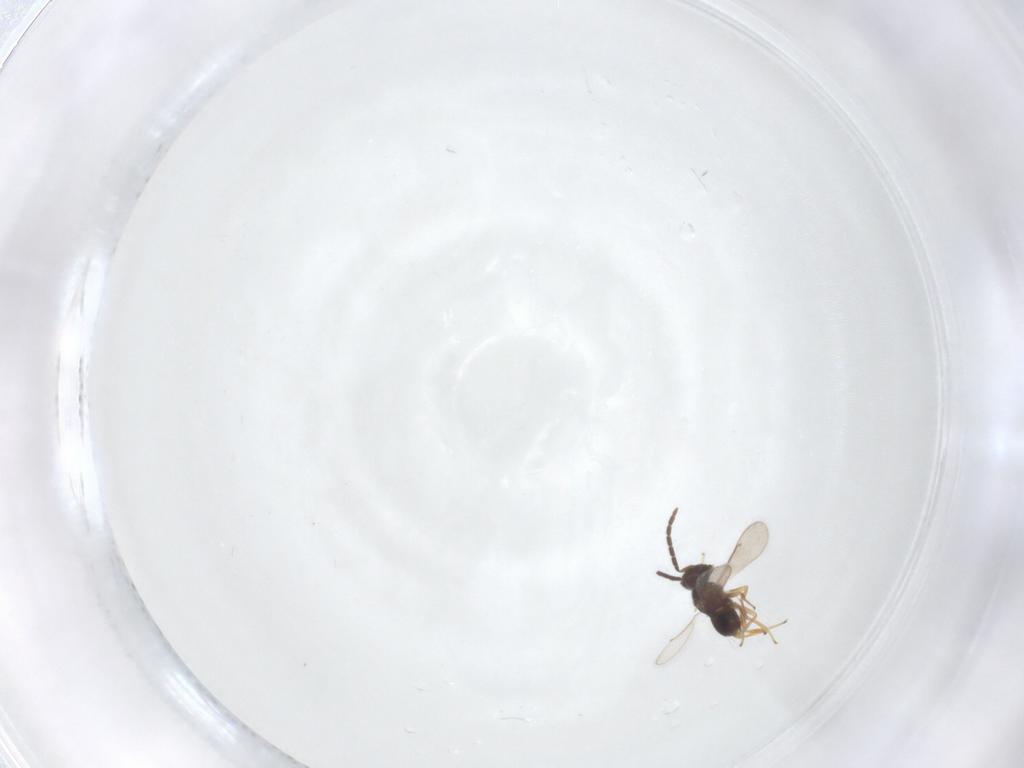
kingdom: Animalia
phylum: Arthropoda
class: Insecta
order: Hymenoptera
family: Aphelinidae
